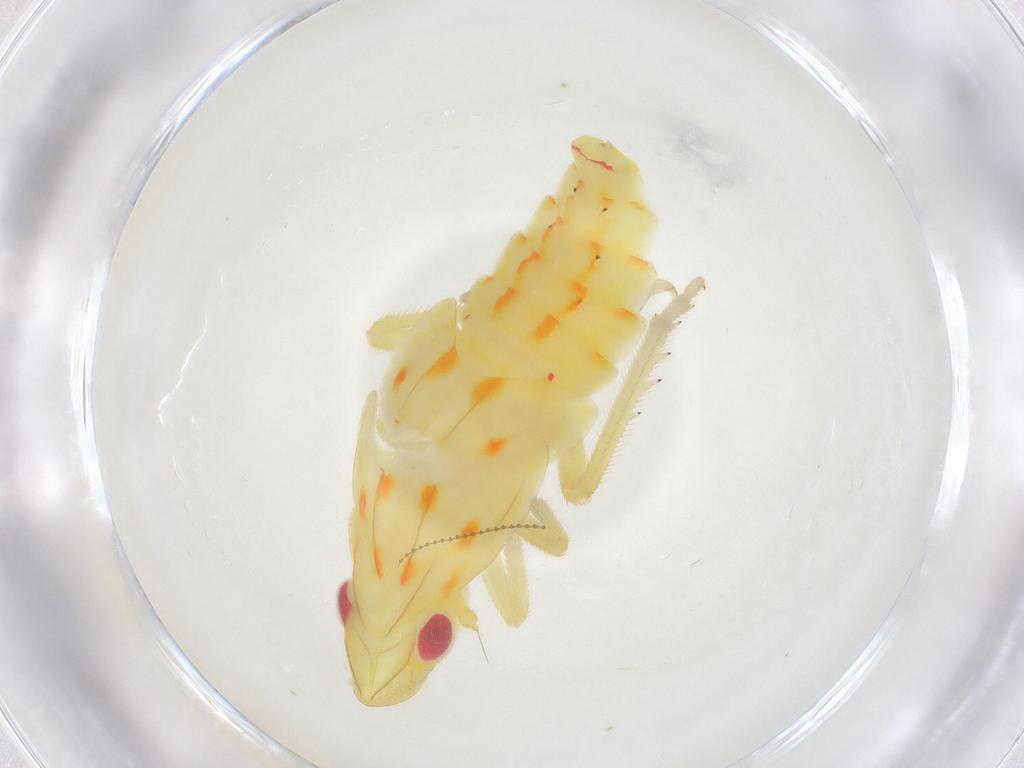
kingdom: Animalia
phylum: Arthropoda
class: Insecta
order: Hemiptera
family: Tropiduchidae
